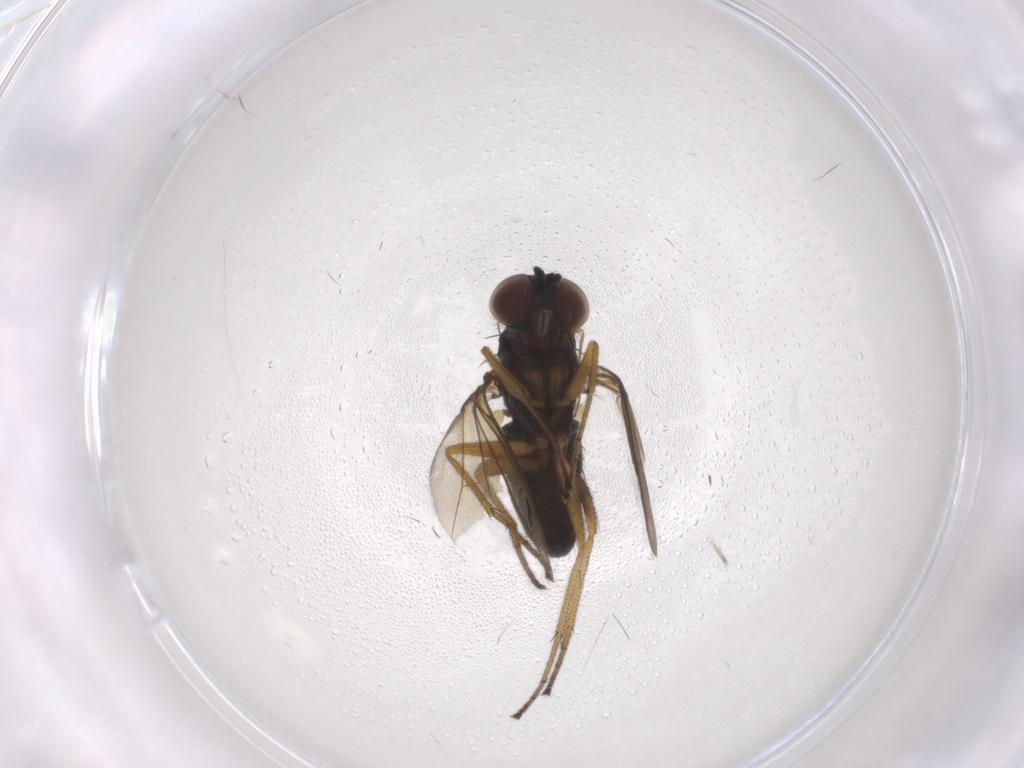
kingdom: Animalia
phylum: Arthropoda
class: Insecta
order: Diptera
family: Dolichopodidae
